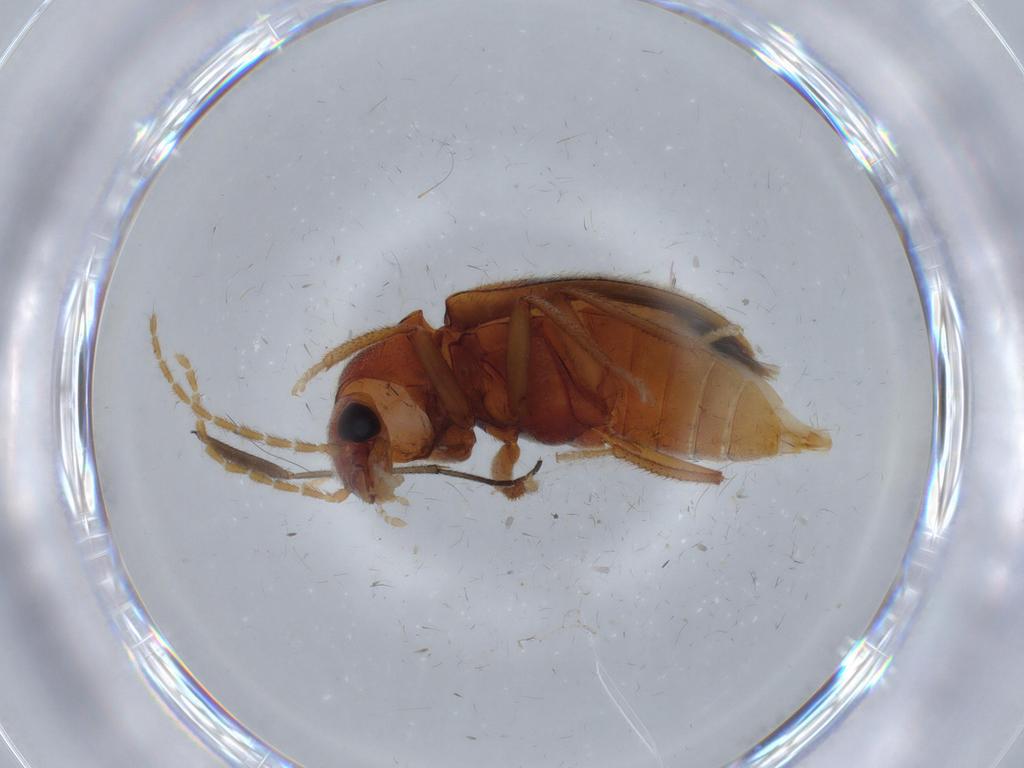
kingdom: Animalia
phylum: Arthropoda
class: Insecta
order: Coleoptera
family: Ptilodactylidae
